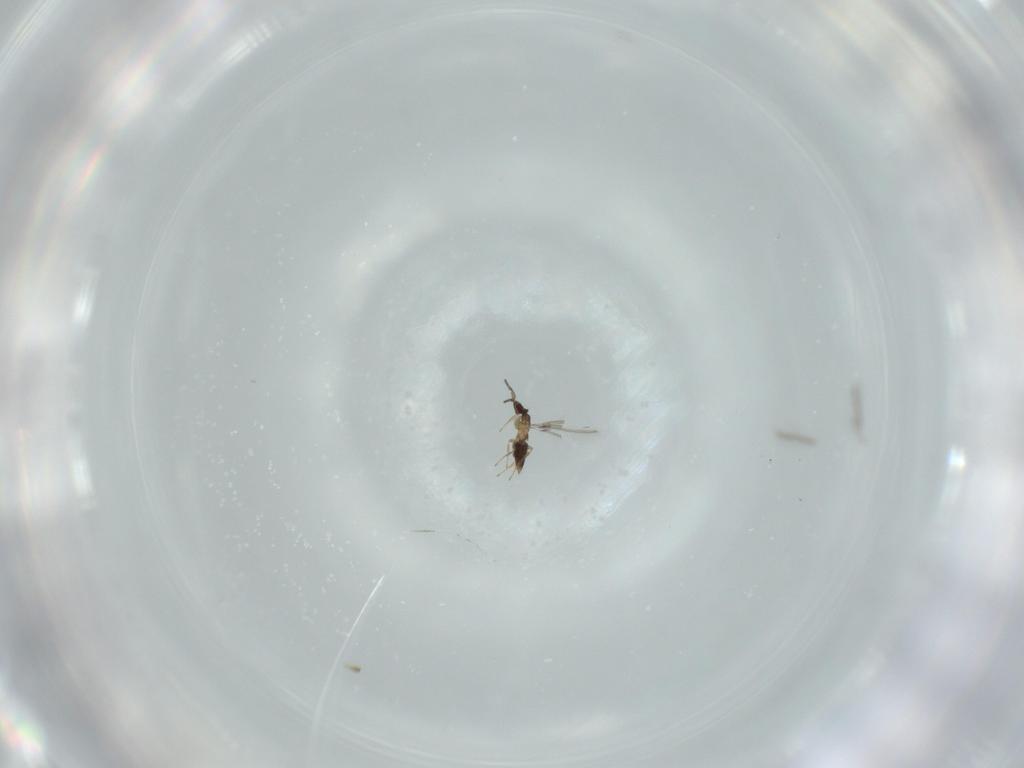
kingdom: Animalia
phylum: Arthropoda
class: Insecta
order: Hymenoptera
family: Mymaridae
